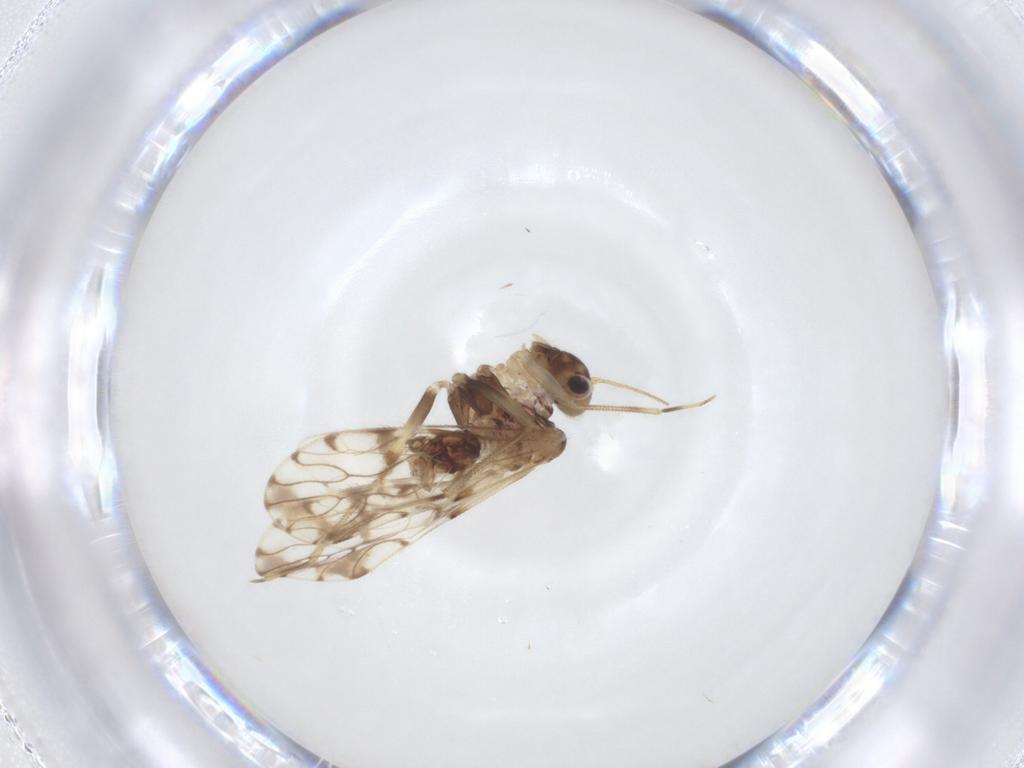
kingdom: Animalia
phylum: Arthropoda
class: Insecta
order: Psocodea
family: Epipsocidae
